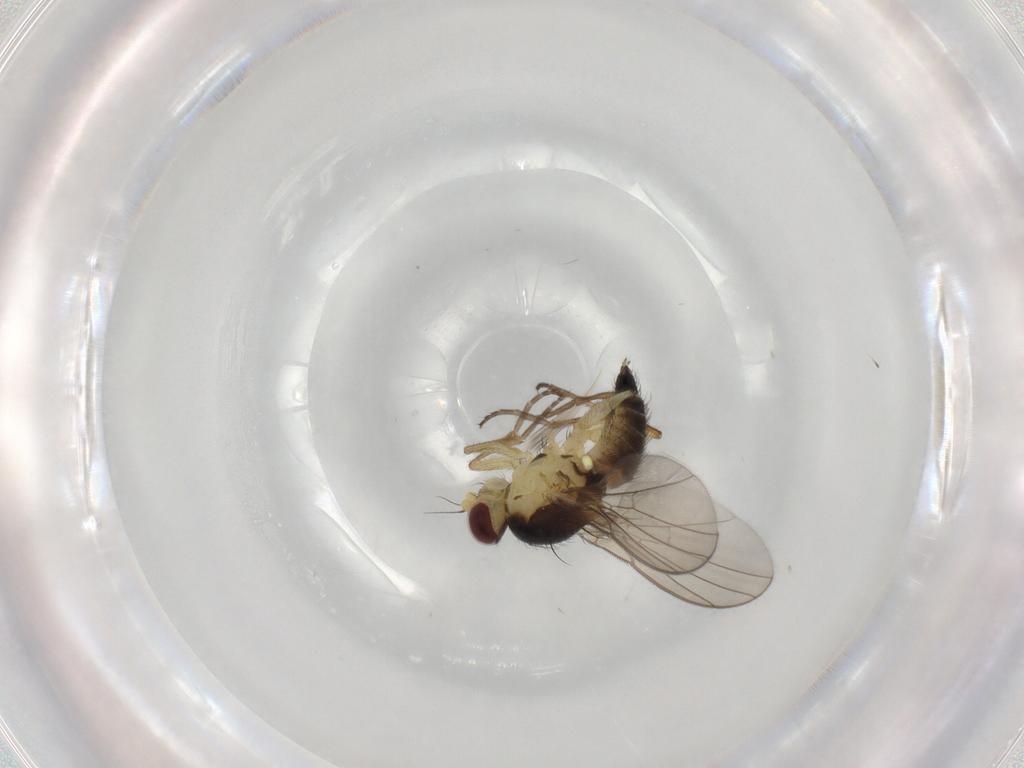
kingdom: Animalia
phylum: Arthropoda
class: Insecta
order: Diptera
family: Agromyzidae
